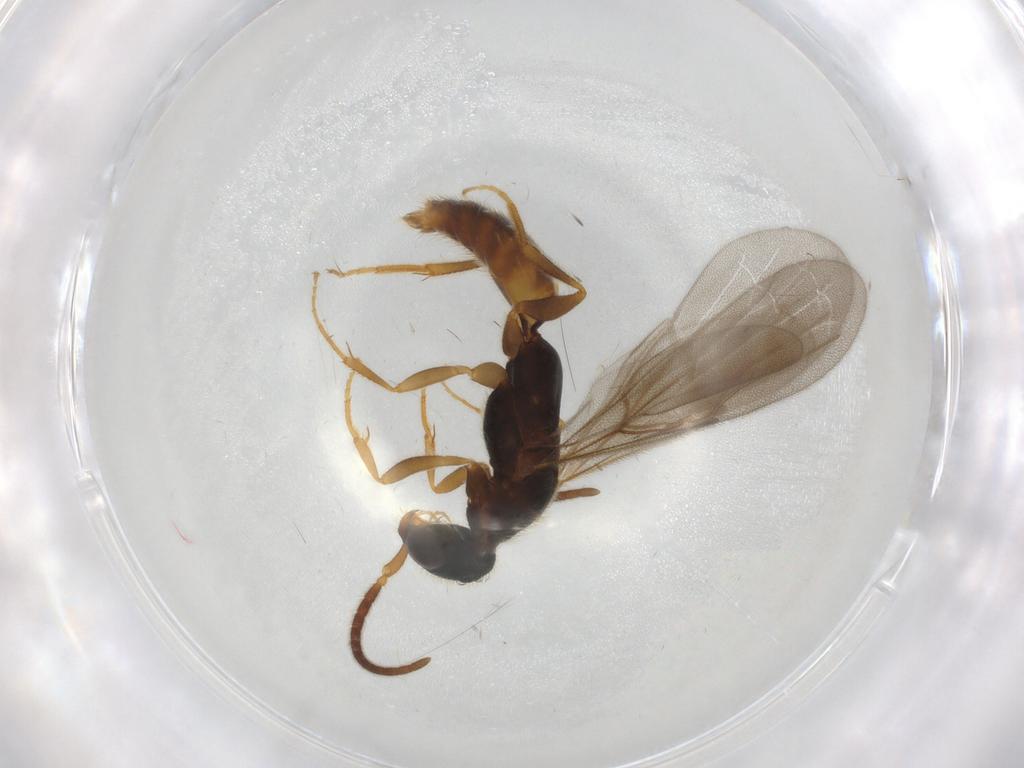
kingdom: Animalia
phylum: Arthropoda
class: Insecta
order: Hymenoptera
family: Bethylidae
